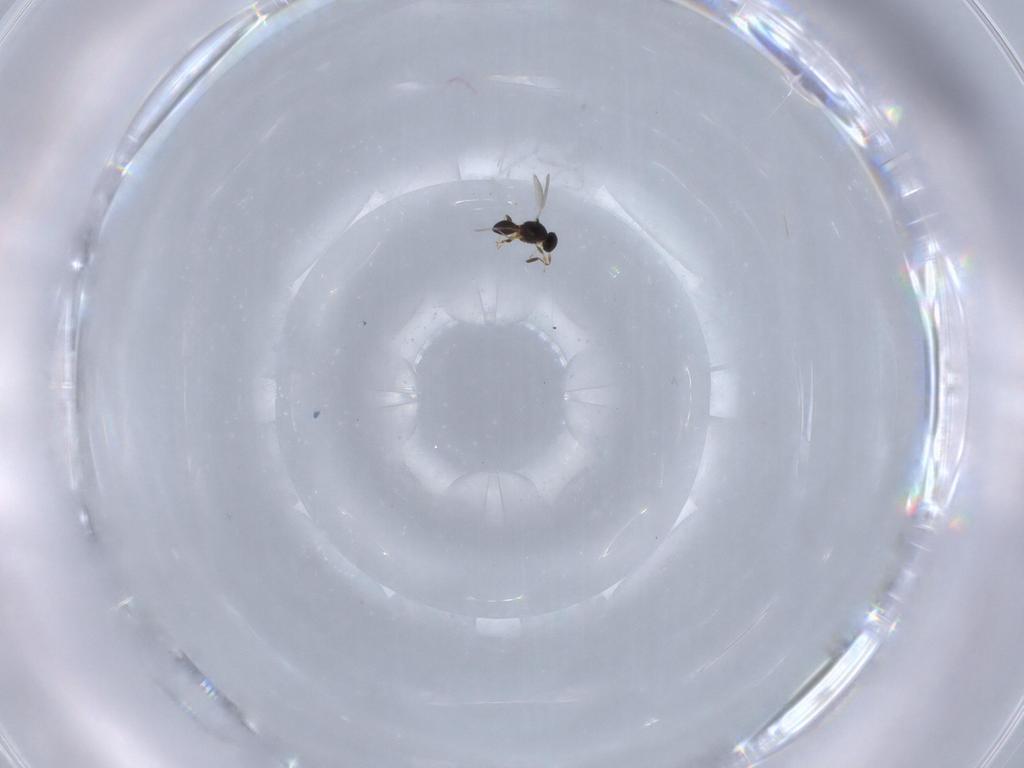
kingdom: Animalia
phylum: Arthropoda
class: Insecta
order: Hymenoptera
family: Platygastridae
